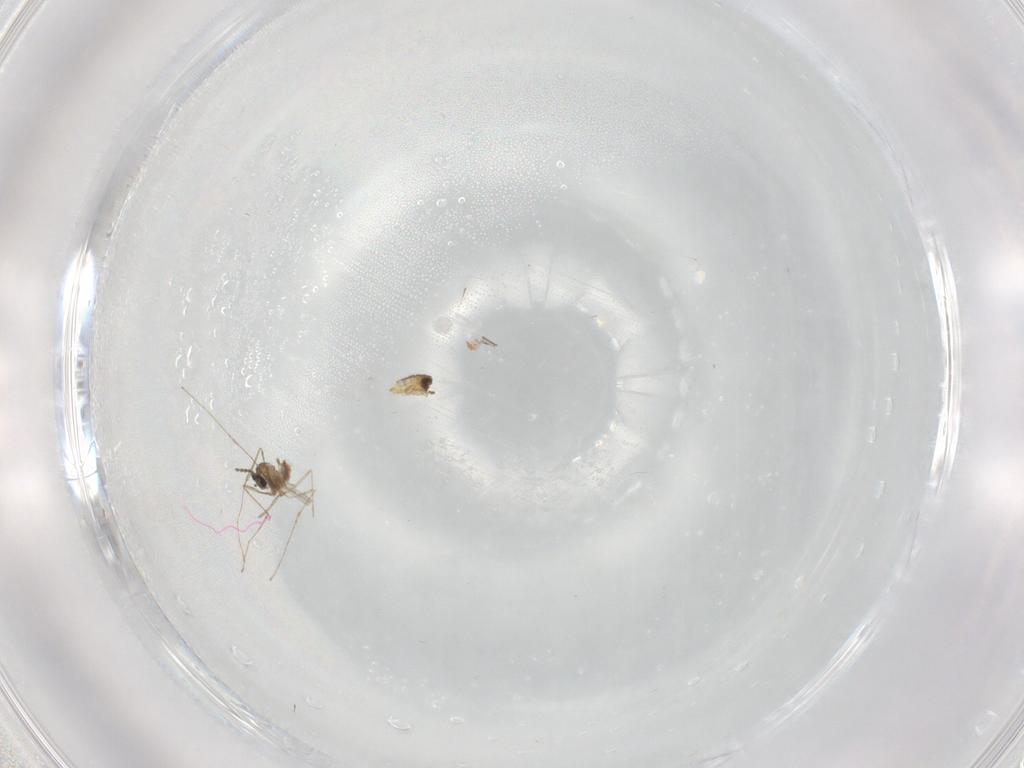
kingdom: Animalia
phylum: Arthropoda
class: Insecta
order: Diptera
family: Cecidomyiidae
